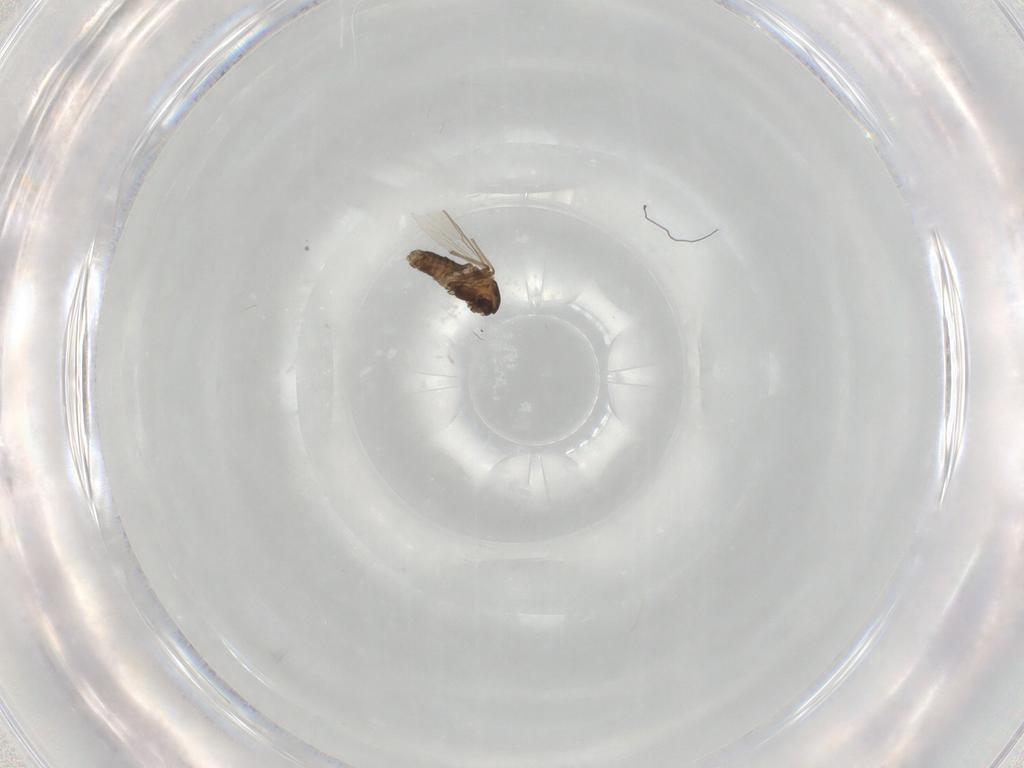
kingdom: Animalia
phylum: Arthropoda
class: Insecta
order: Diptera
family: Chironomidae
